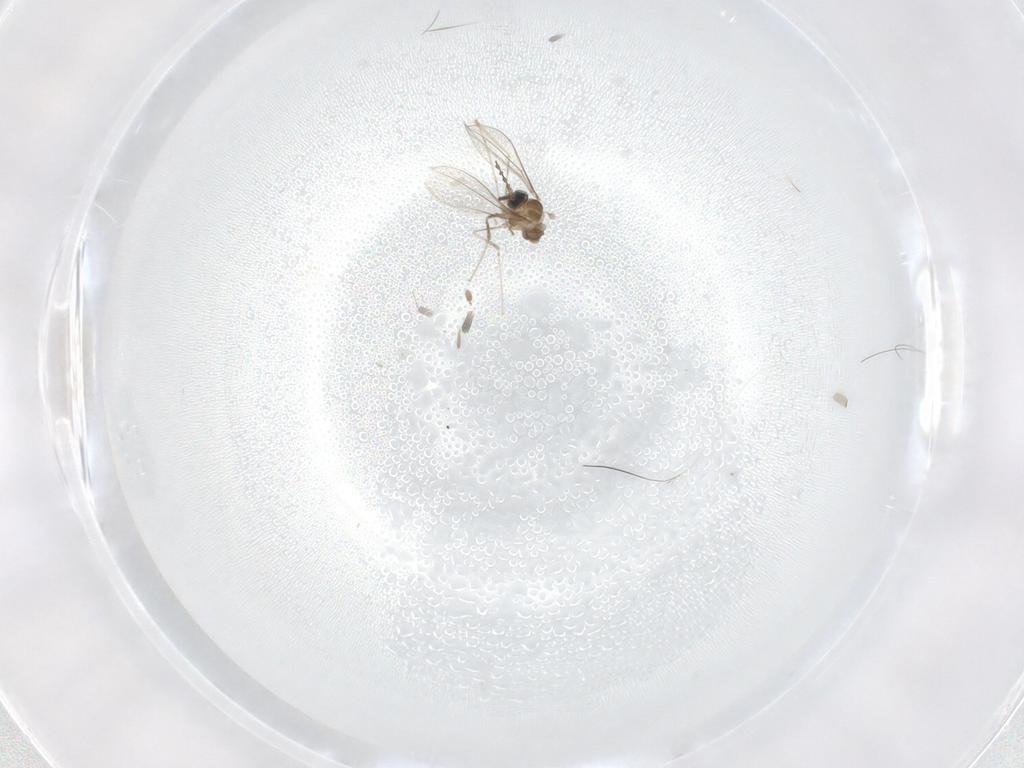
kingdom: Animalia
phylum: Arthropoda
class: Insecta
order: Diptera
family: Cecidomyiidae
